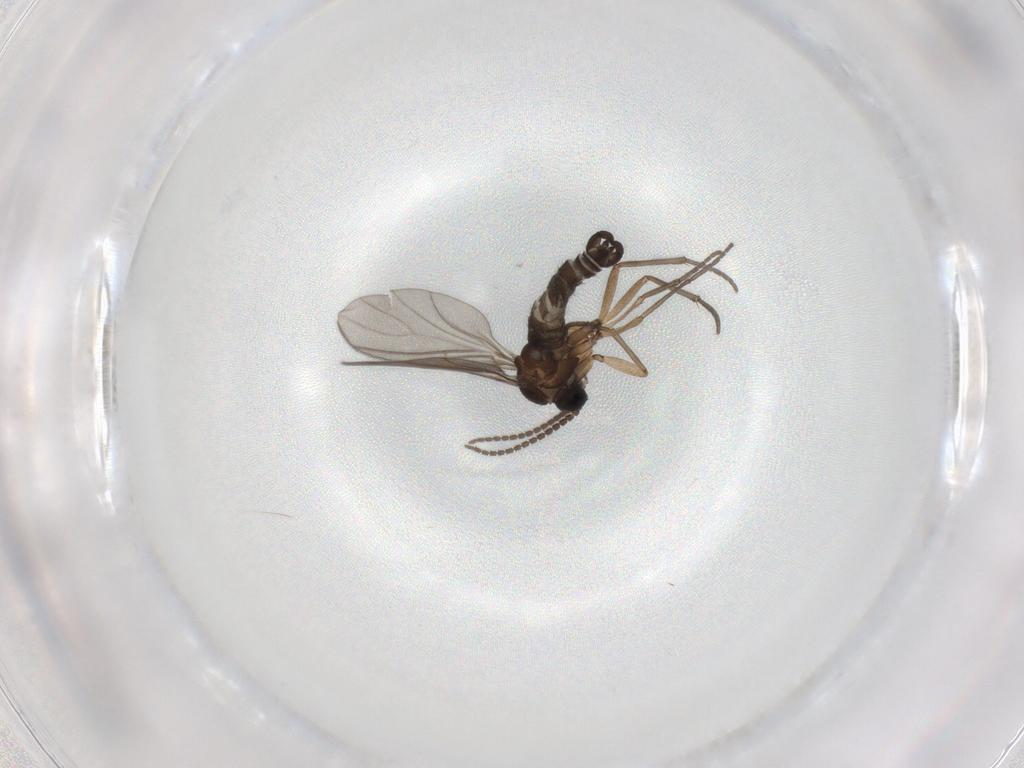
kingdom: Animalia
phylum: Arthropoda
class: Insecta
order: Diptera
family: Sciaridae
